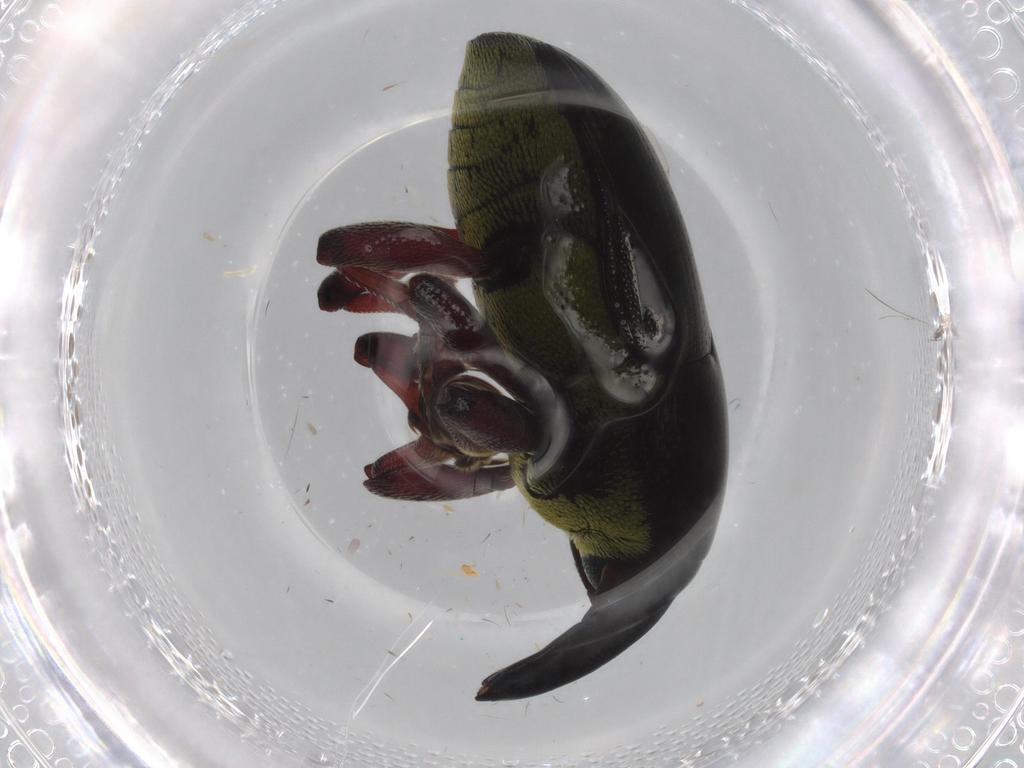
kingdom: Animalia
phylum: Arthropoda
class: Insecta
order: Coleoptera
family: Curculionidae
